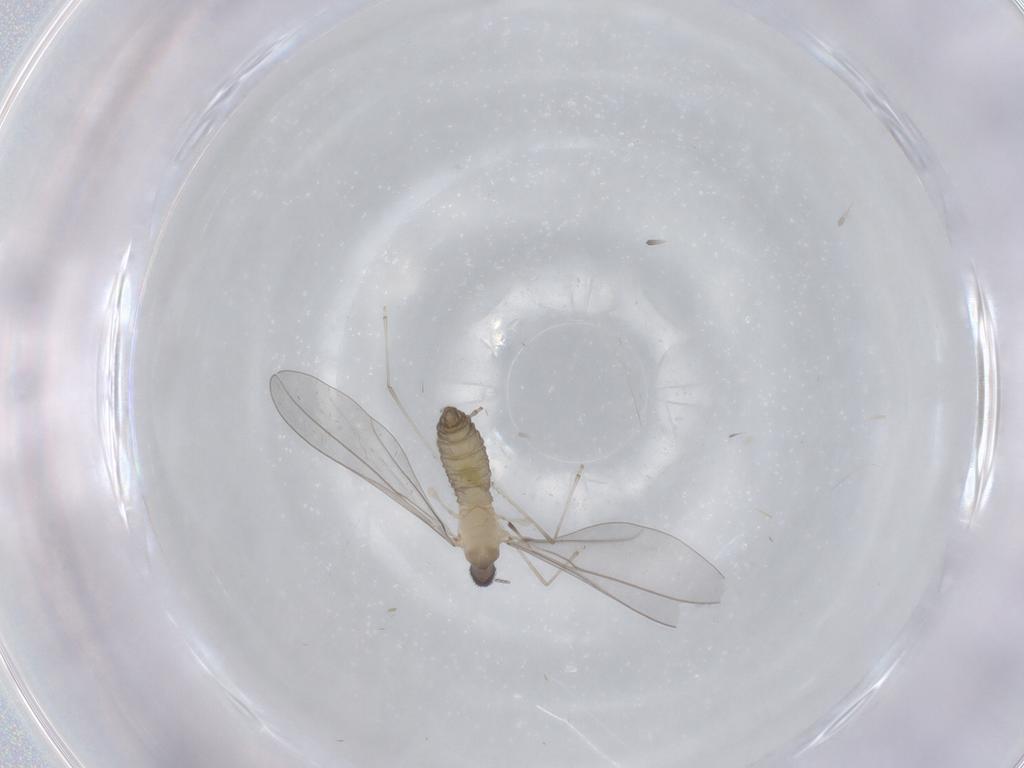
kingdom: Animalia
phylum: Arthropoda
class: Insecta
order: Diptera
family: Cecidomyiidae
